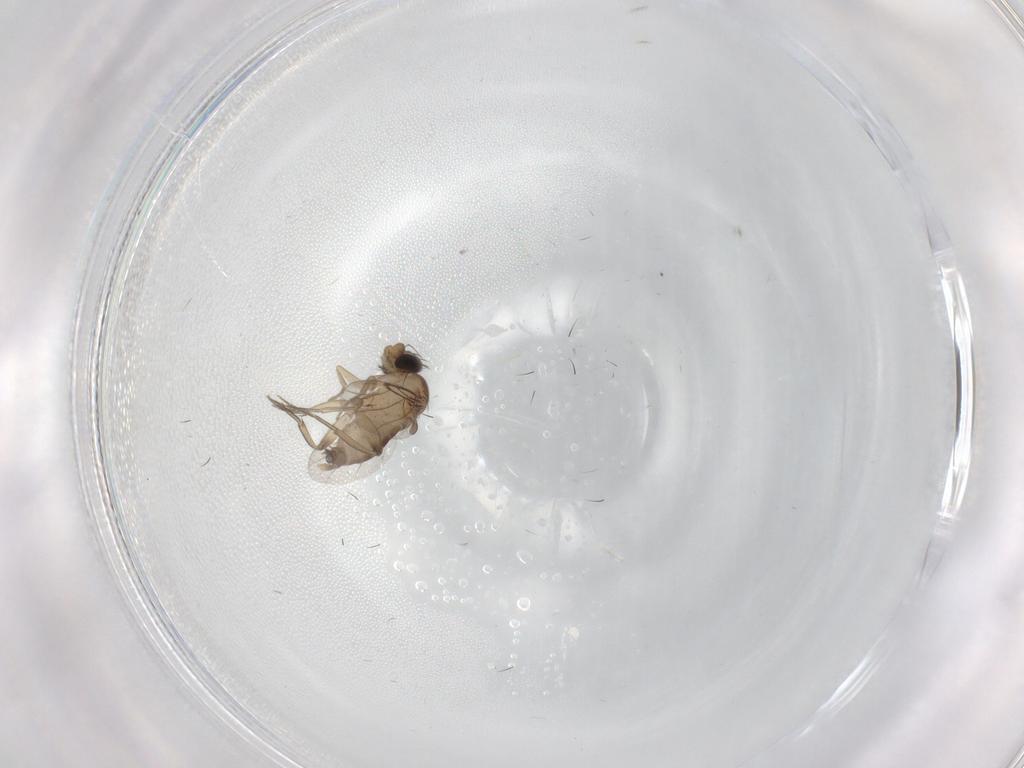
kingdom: Animalia
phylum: Arthropoda
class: Insecta
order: Diptera
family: Phoridae
